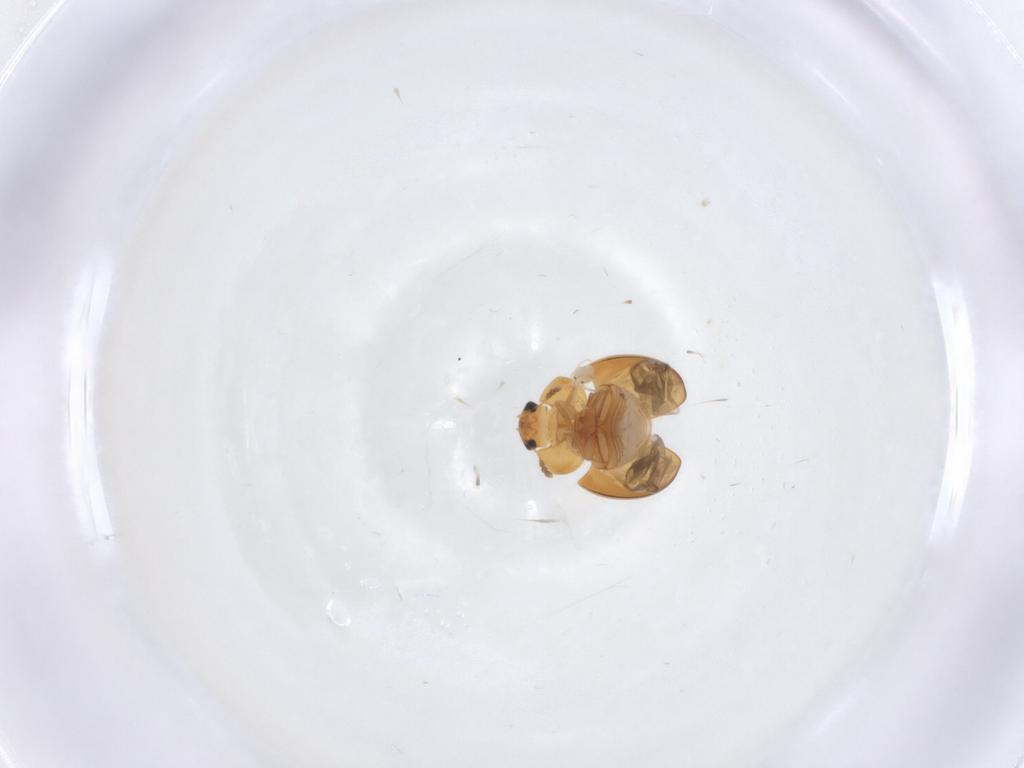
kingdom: Animalia
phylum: Arthropoda
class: Insecta
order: Coleoptera
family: Phalacridae
